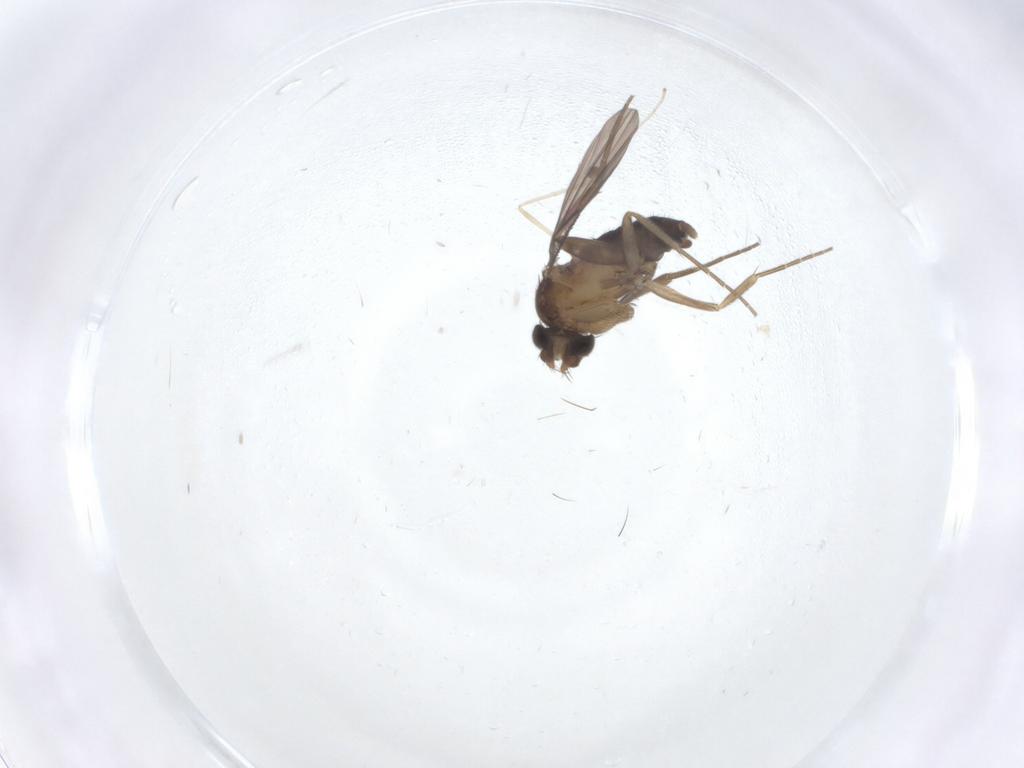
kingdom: Animalia
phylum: Arthropoda
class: Insecta
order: Diptera
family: Phoridae
